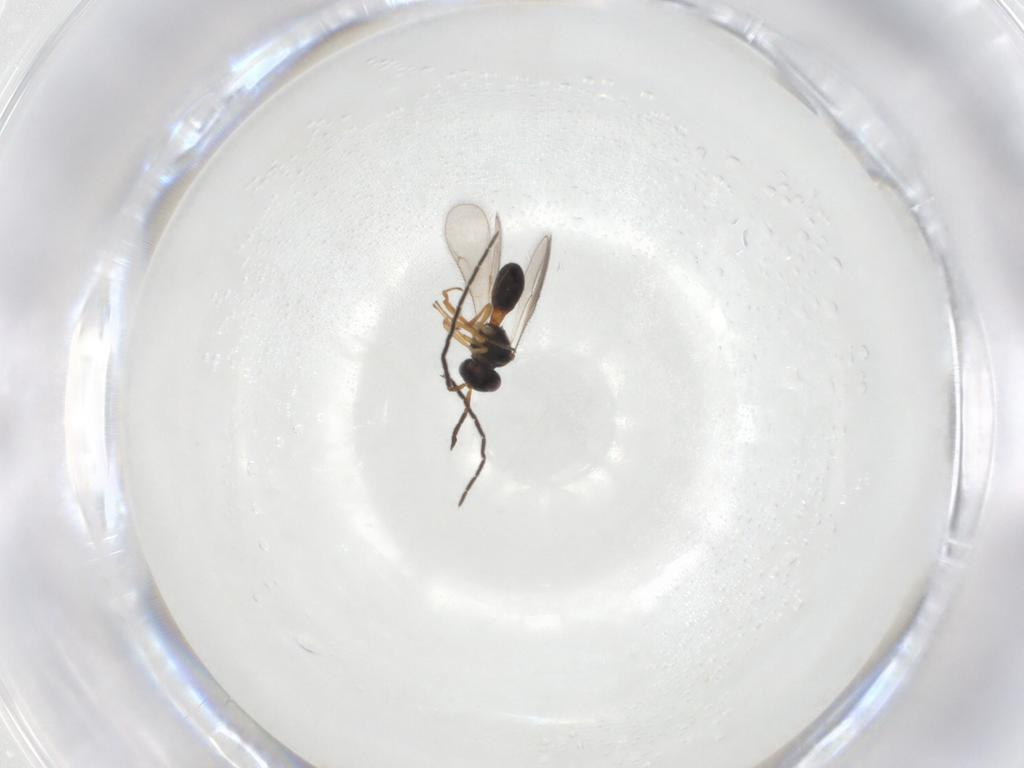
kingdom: Animalia
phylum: Arthropoda
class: Insecta
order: Hymenoptera
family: Scelionidae
